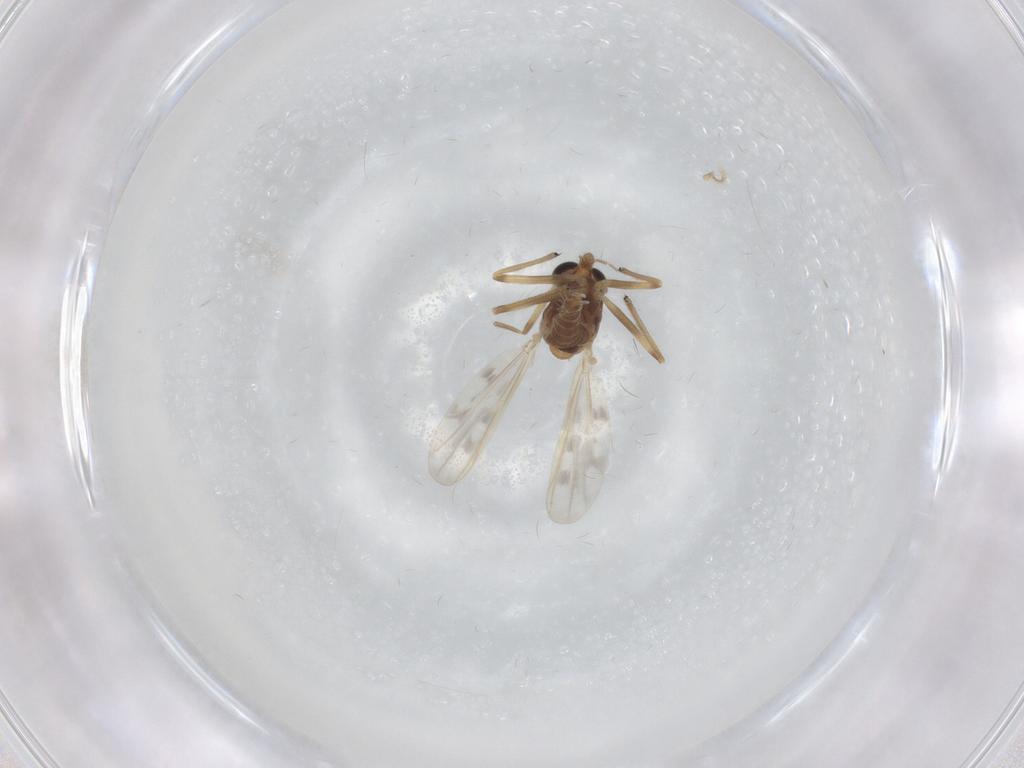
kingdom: Animalia
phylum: Arthropoda
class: Insecta
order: Diptera
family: Chironomidae
